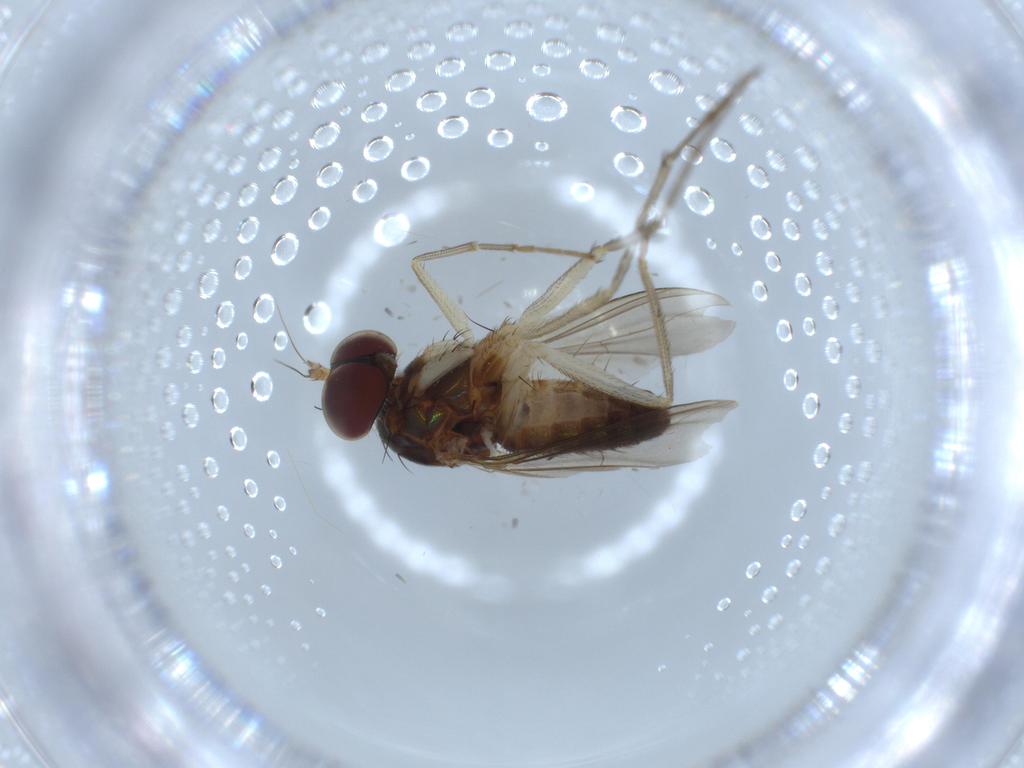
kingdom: Animalia
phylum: Arthropoda
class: Insecta
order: Diptera
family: Dolichopodidae
